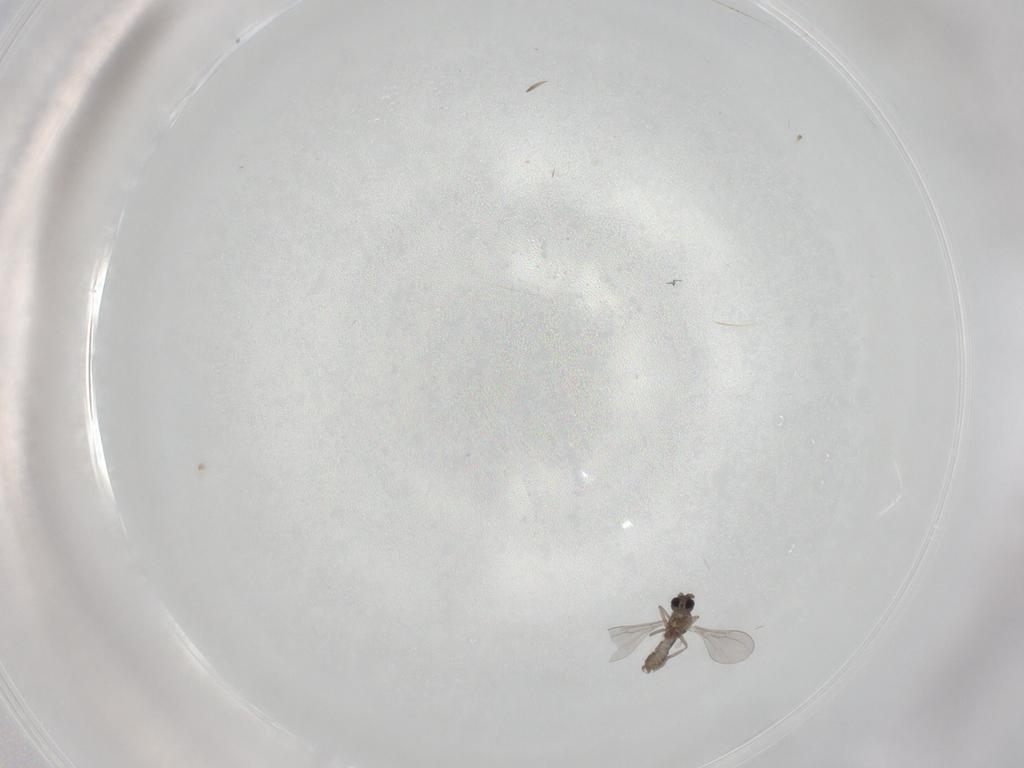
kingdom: Animalia
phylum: Arthropoda
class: Insecta
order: Diptera
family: Cecidomyiidae
